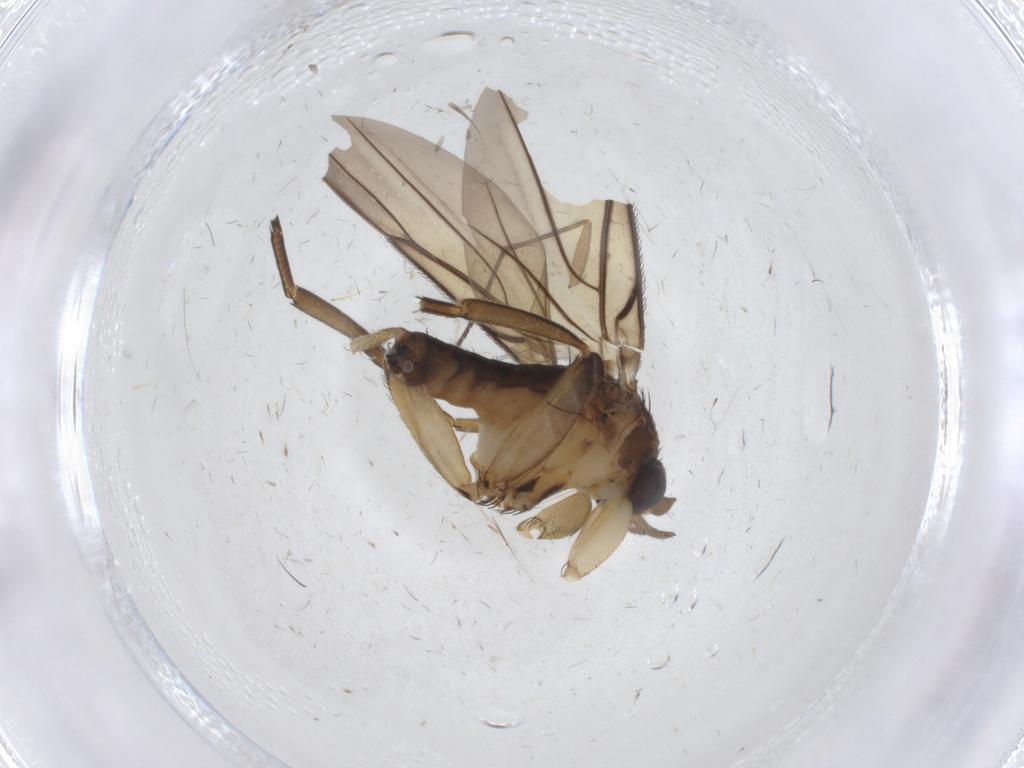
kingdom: Animalia
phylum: Arthropoda
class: Insecta
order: Diptera
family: Phoridae
